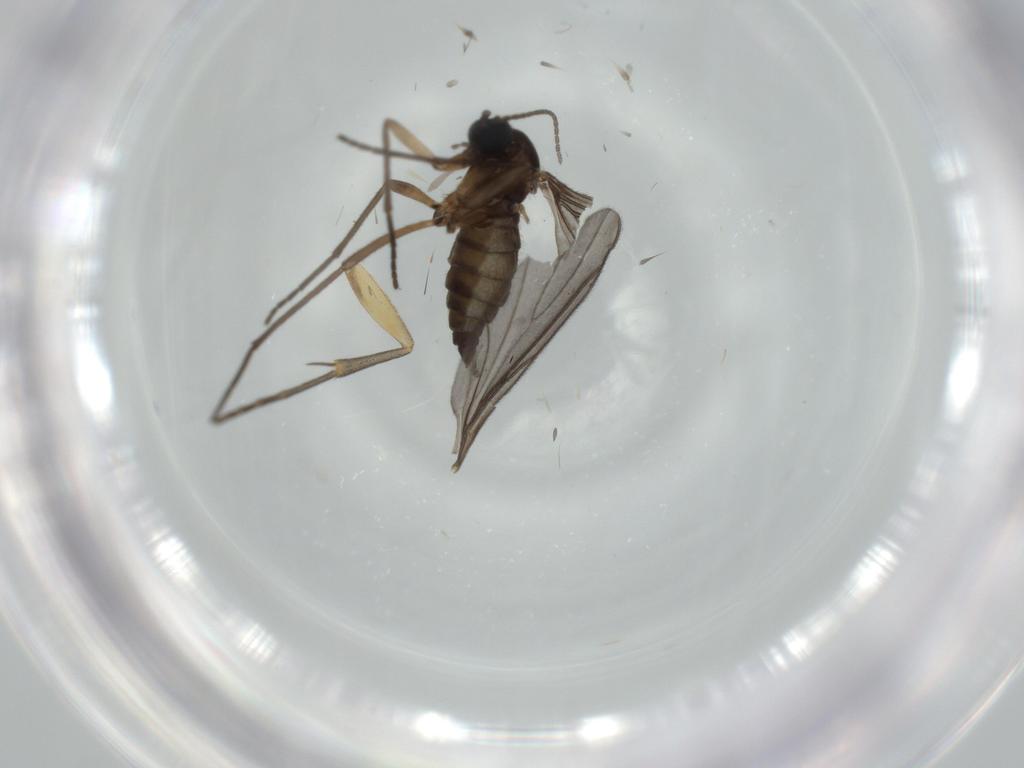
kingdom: Animalia
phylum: Arthropoda
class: Insecta
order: Diptera
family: Sciaridae
